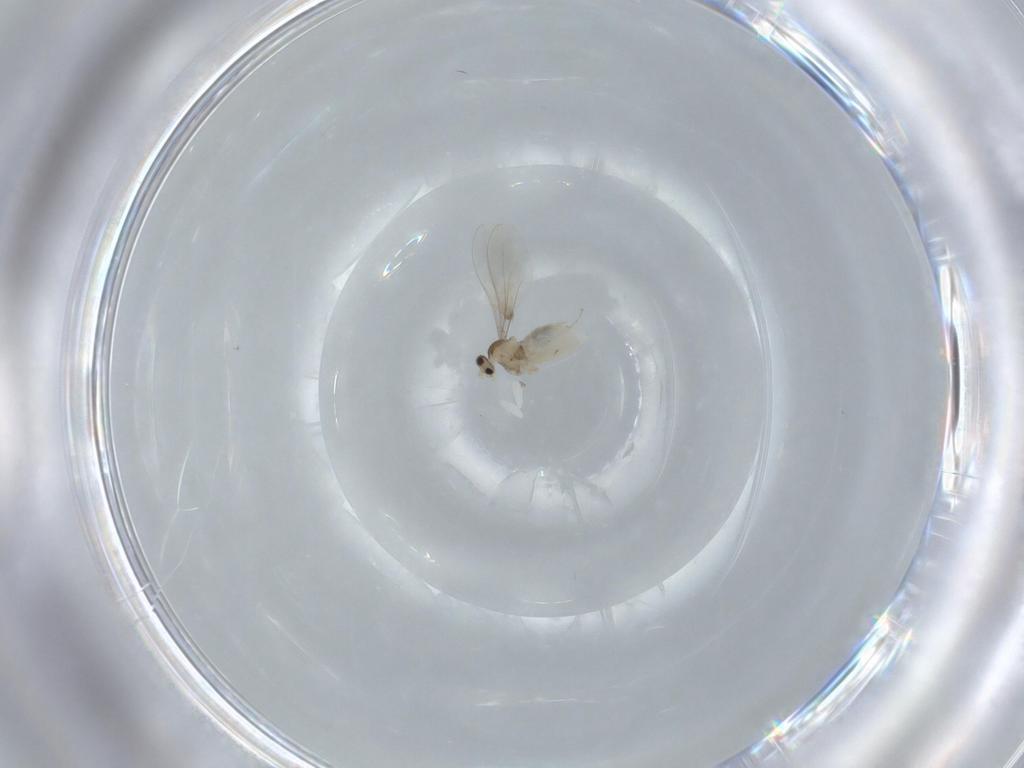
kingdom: Animalia
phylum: Arthropoda
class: Insecta
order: Diptera
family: Cecidomyiidae
